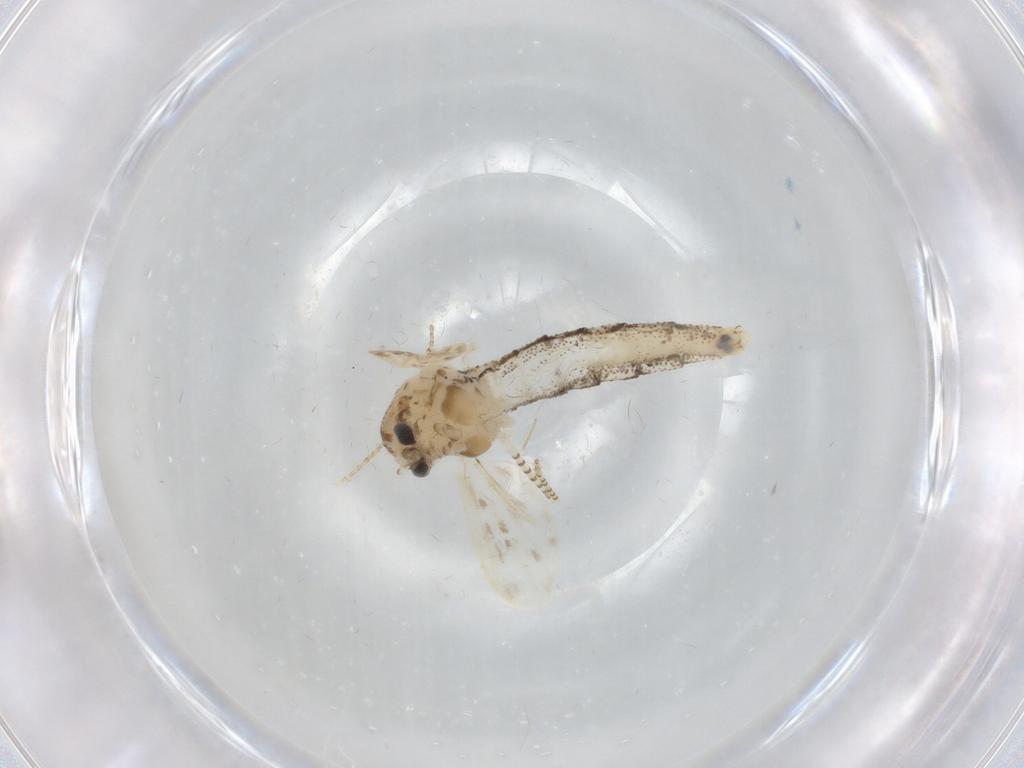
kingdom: Animalia
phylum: Arthropoda
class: Insecta
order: Diptera
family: Chaoboridae
